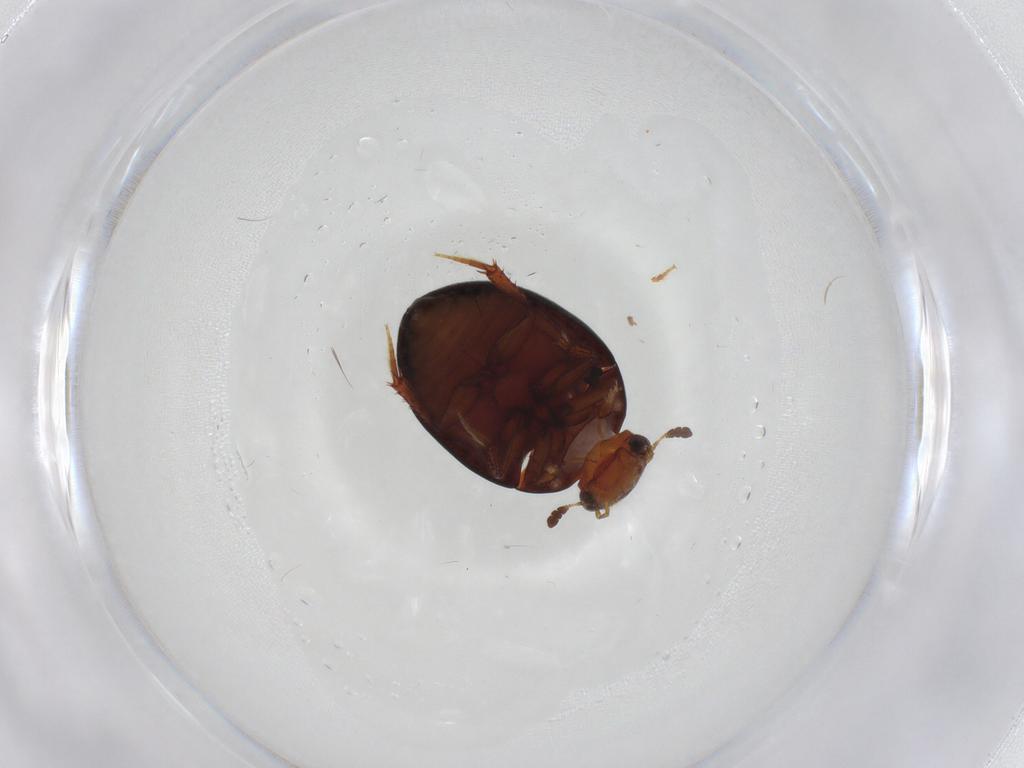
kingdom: Animalia
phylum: Arthropoda
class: Insecta
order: Coleoptera
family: Hydrophilidae
